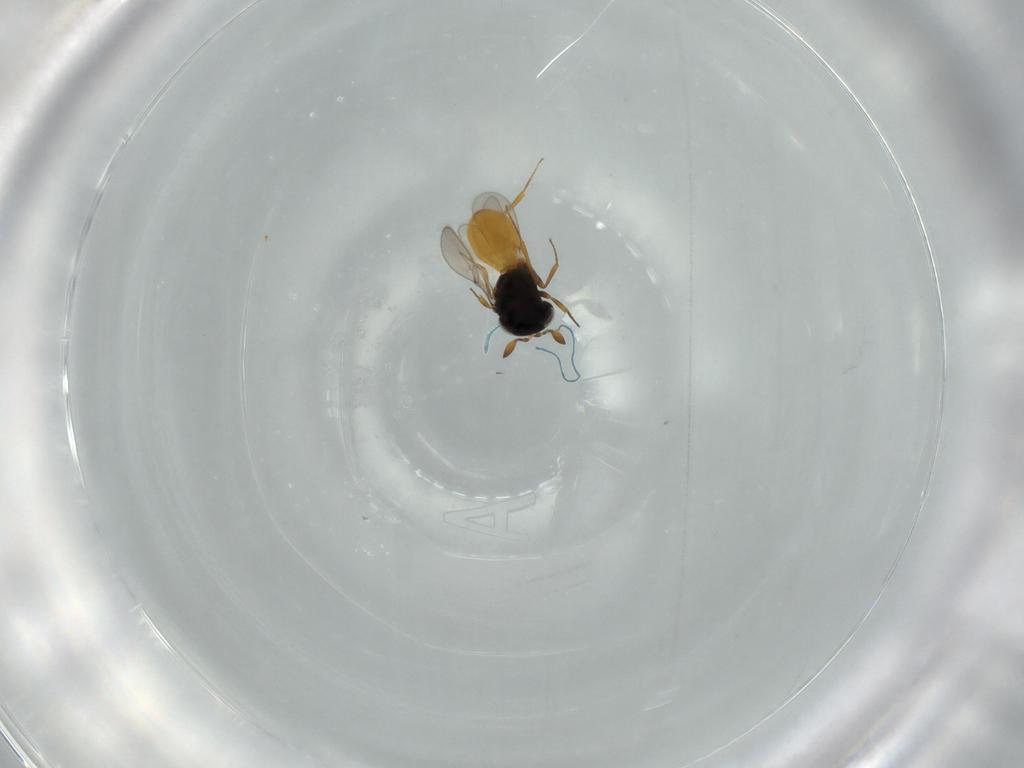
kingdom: Animalia
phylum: Arthropoda
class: Insecta
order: Hymenoptera
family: Scelionidae
